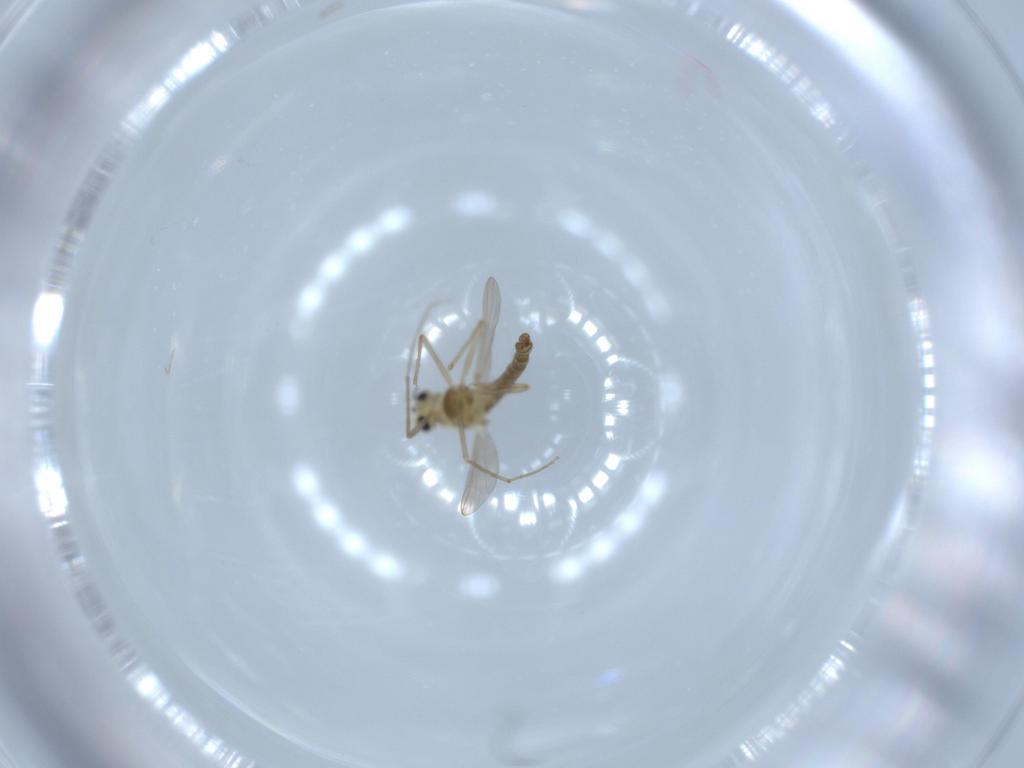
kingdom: Animalia
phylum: Arthropoda
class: Insecta
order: Diptera
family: Chironomidae
